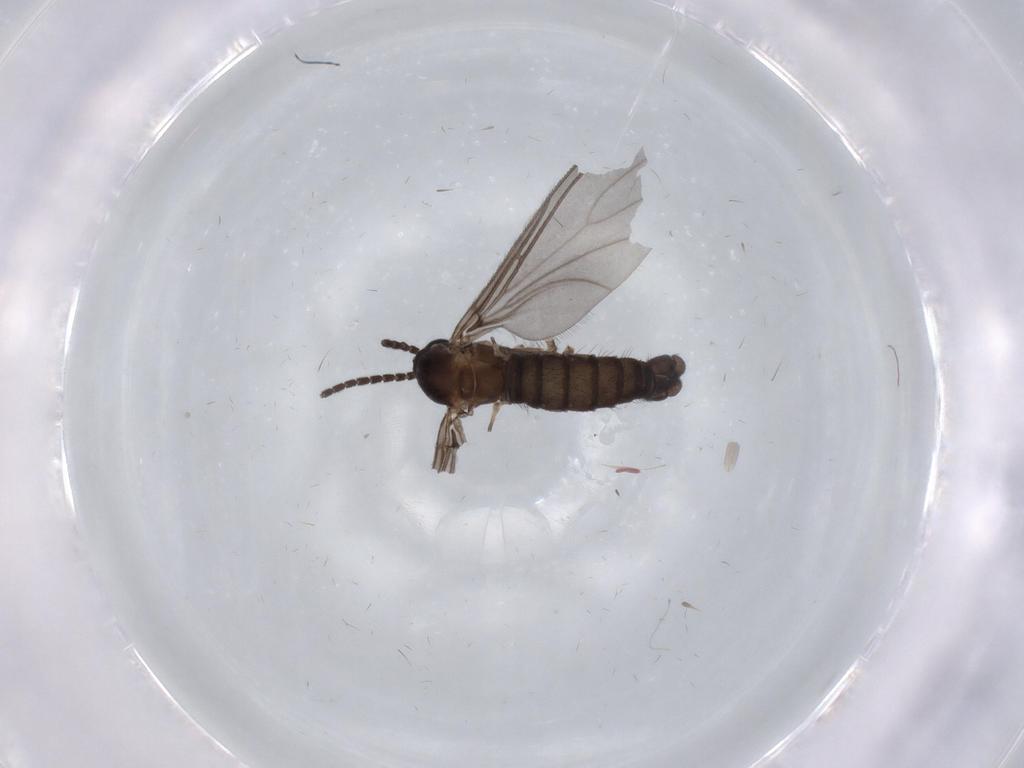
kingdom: Animalia
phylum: Arthropoda
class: Insecta
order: Diptera
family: Sciaridae
